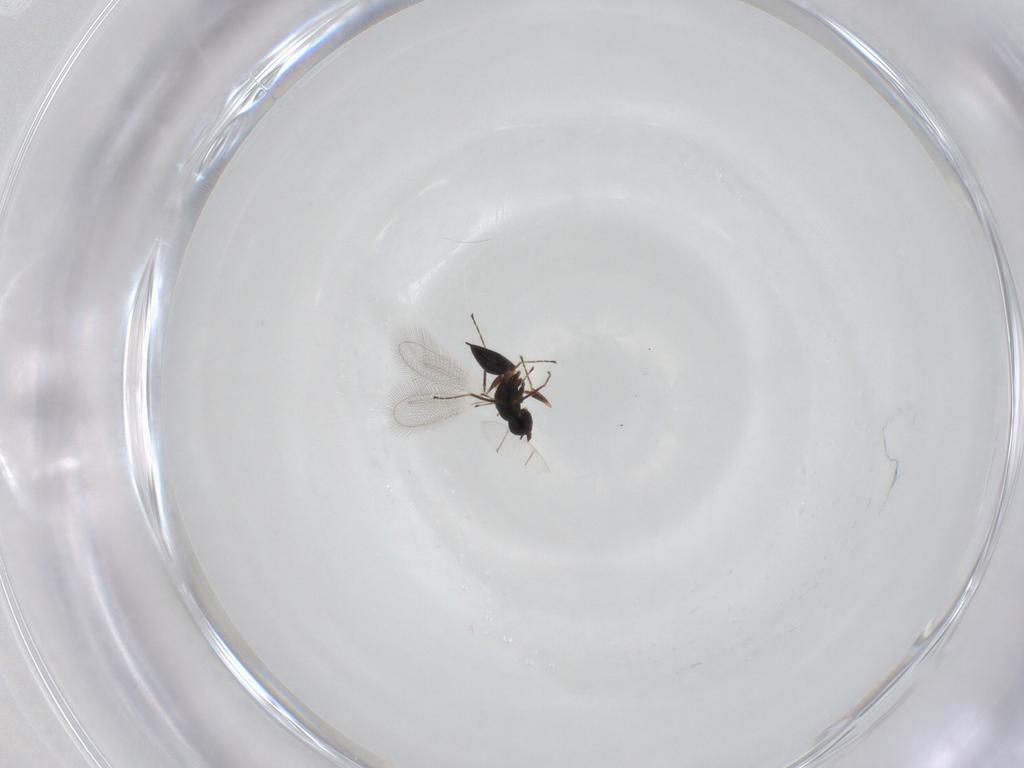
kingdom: Animalia
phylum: Arthropoda
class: Insecta
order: Hymenoptera
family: Mymaridae
